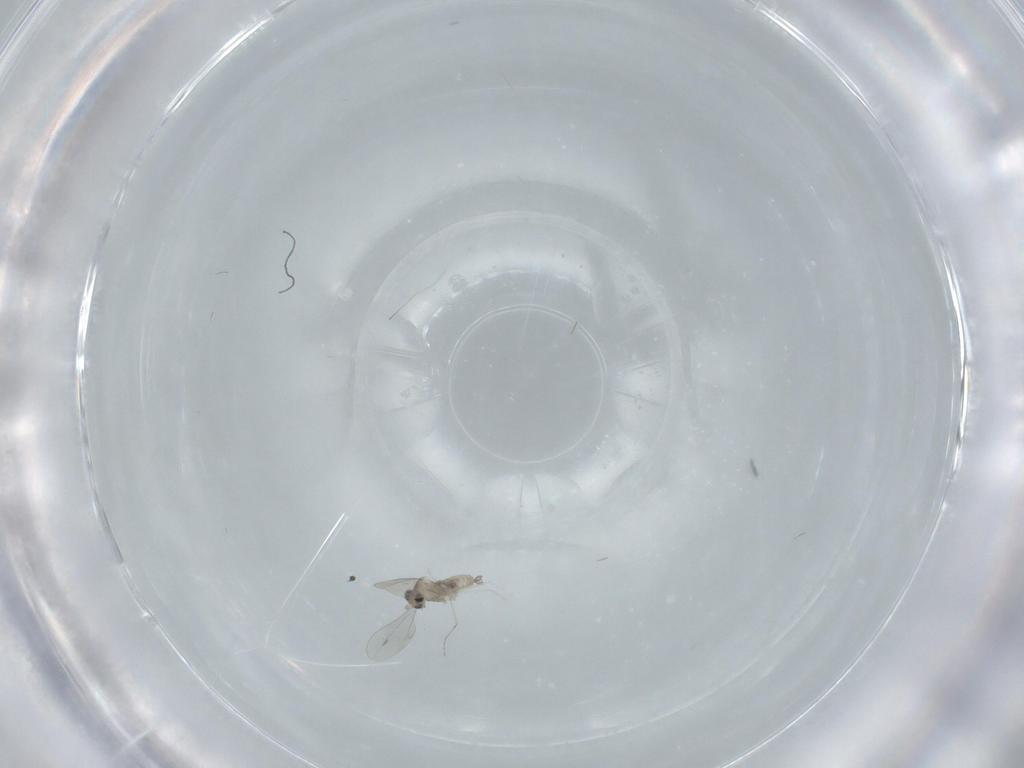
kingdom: Animalia
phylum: Arthropoda
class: Insecta
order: Diptera
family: Cecidomyiidae
